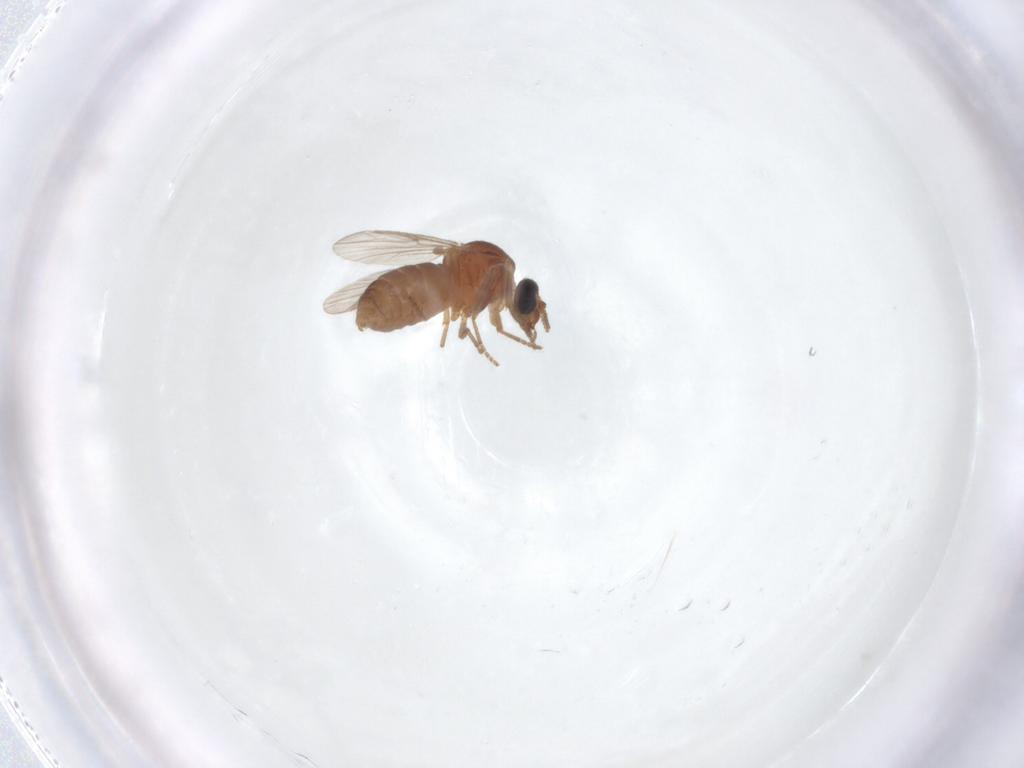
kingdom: Animalia
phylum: Arthropoda
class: Insecta
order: Diptera
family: Ceratopogonidae
